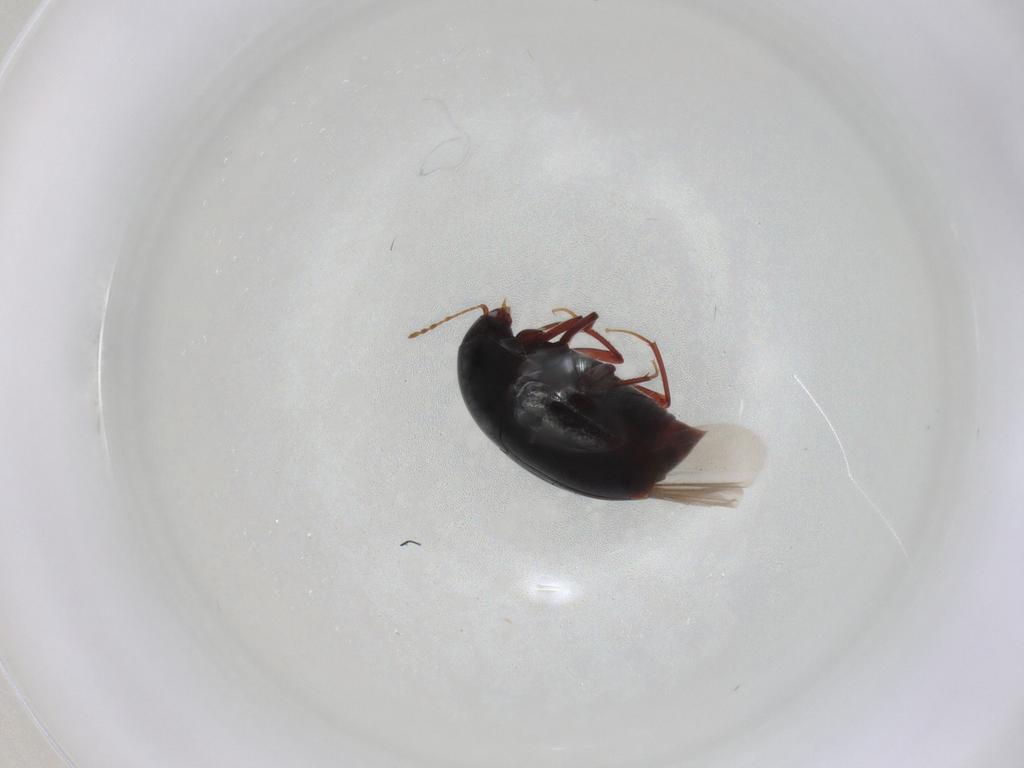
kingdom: Animalia
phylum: Arthropoda
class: Insecta
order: Coleoptera
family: Staphylinidae
